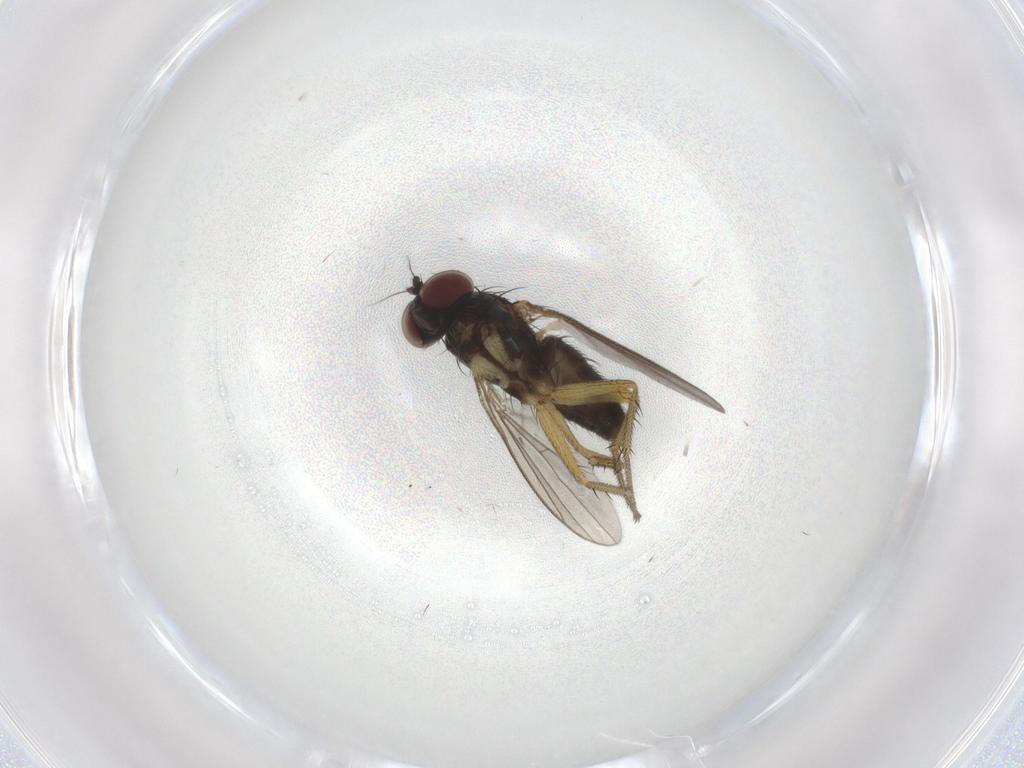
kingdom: Animalia
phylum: Arthropoda
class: Insecta
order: Diptera
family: Dolichopodidae
